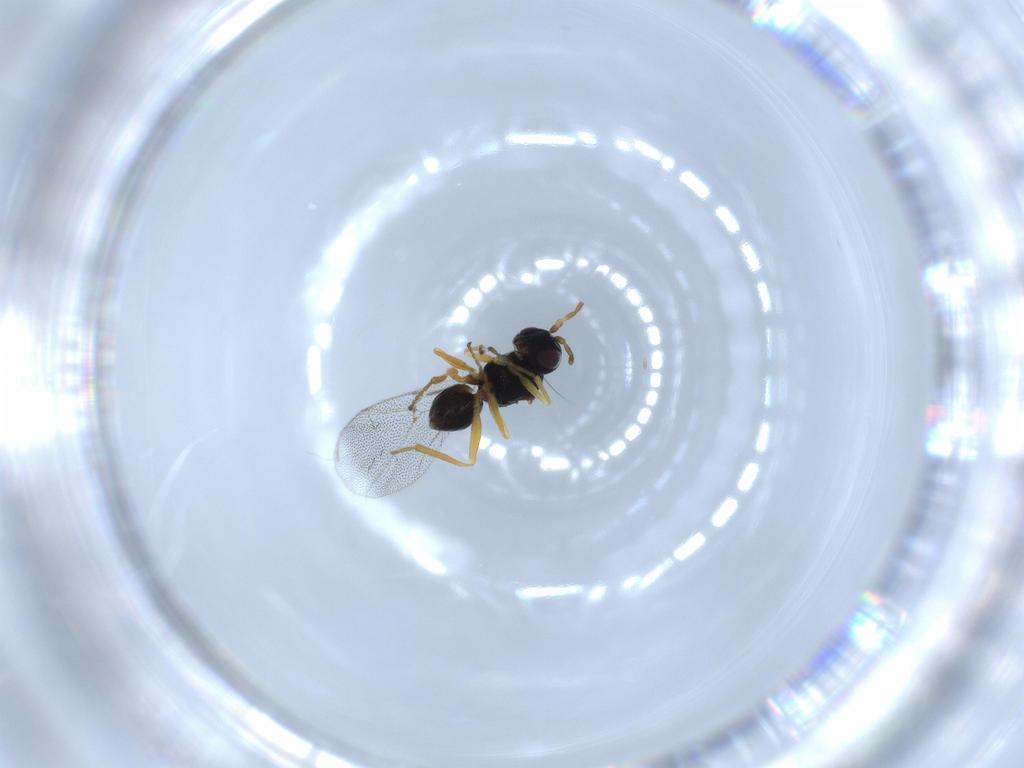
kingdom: Animalia
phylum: Arthropoda
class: Insecta
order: Hymenoptera
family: Cynipidae
